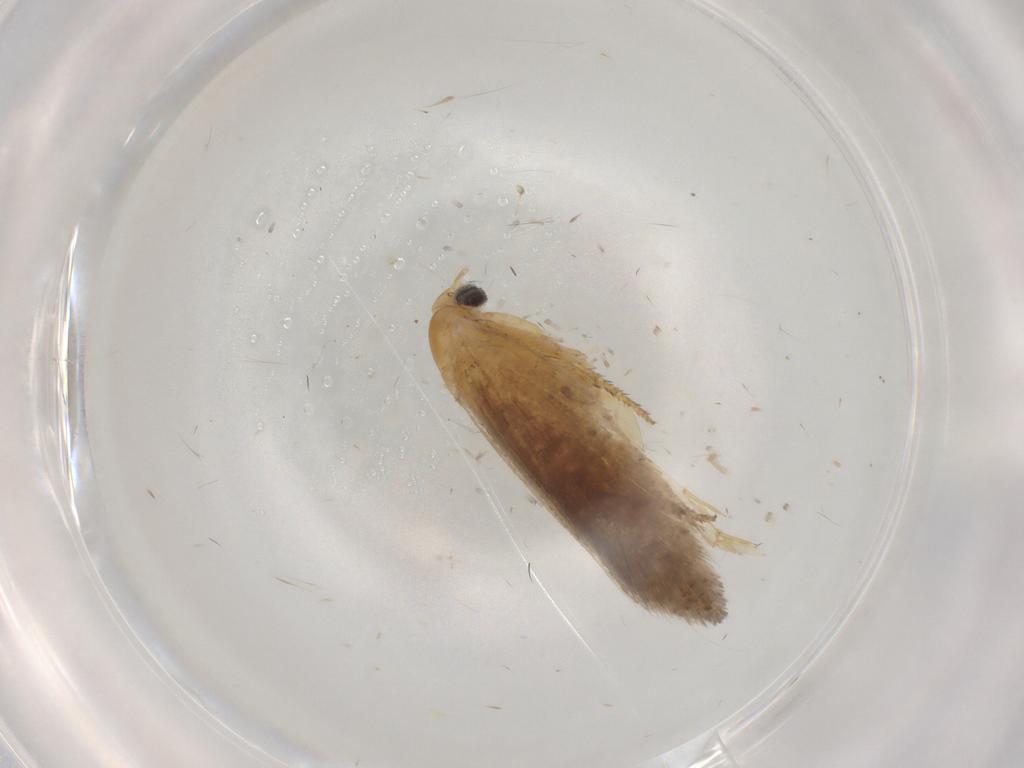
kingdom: Animalia
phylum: Arthropoda
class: Insecta
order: Lepidoptera
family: Plutellidae
